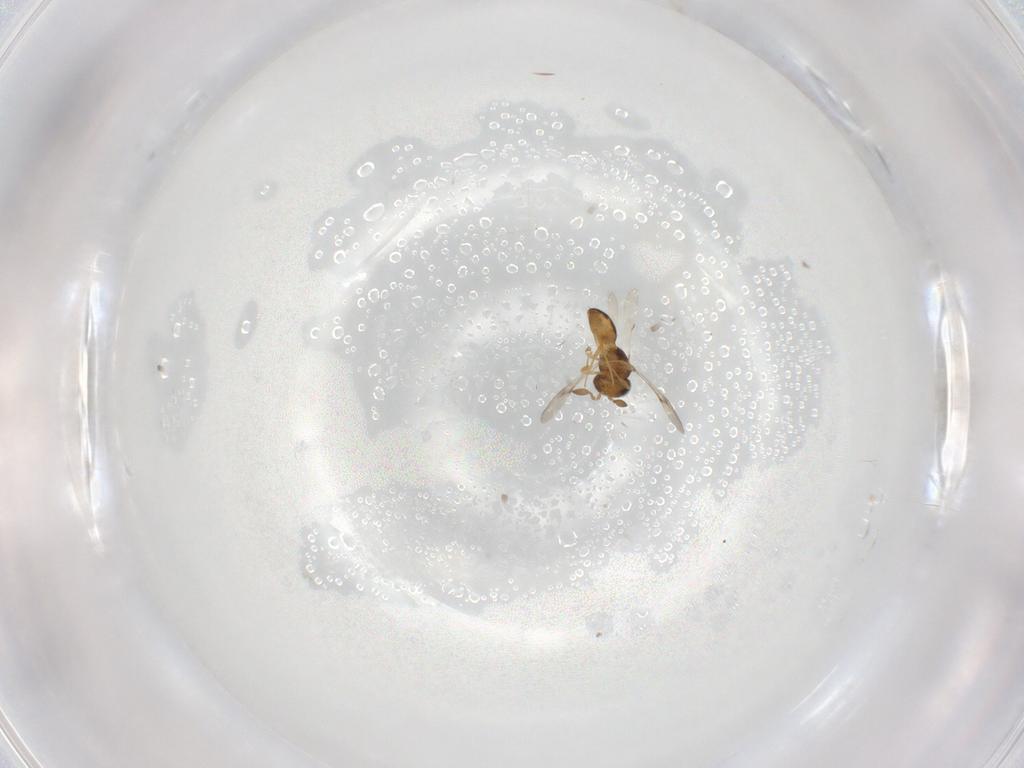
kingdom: Animalia
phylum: Arthropoda
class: Insecta
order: Hymenoptera
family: Scelionidae
